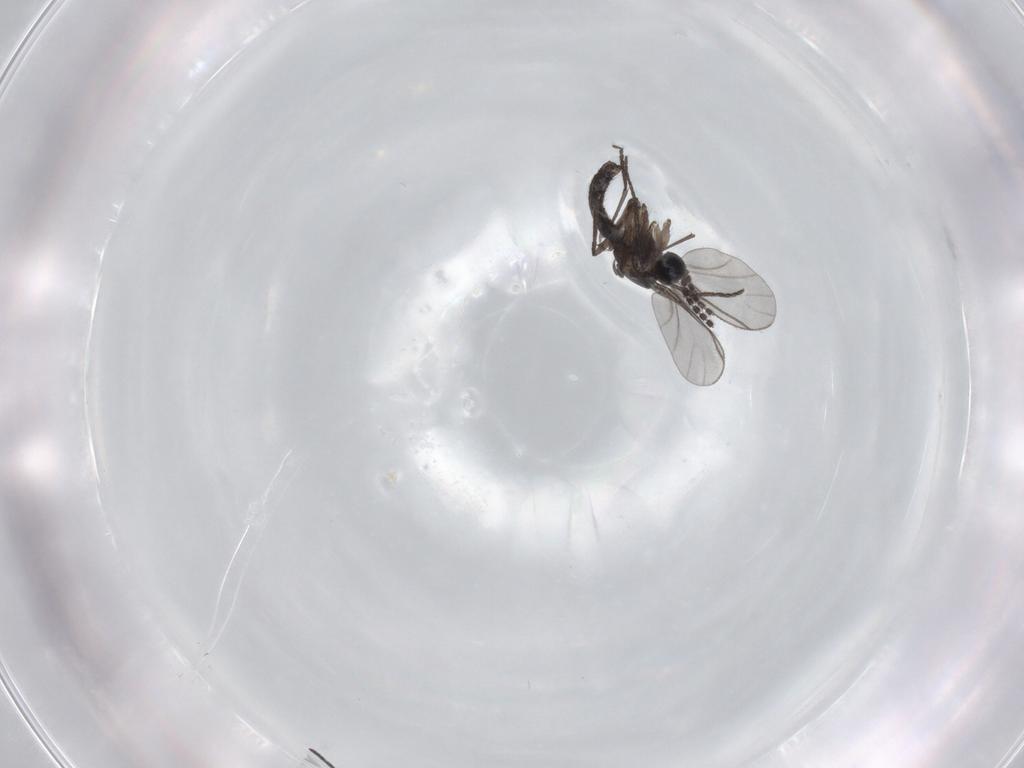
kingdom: Animalia
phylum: Arthropoda
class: Insecta
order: Diptera
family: Sciaridae
